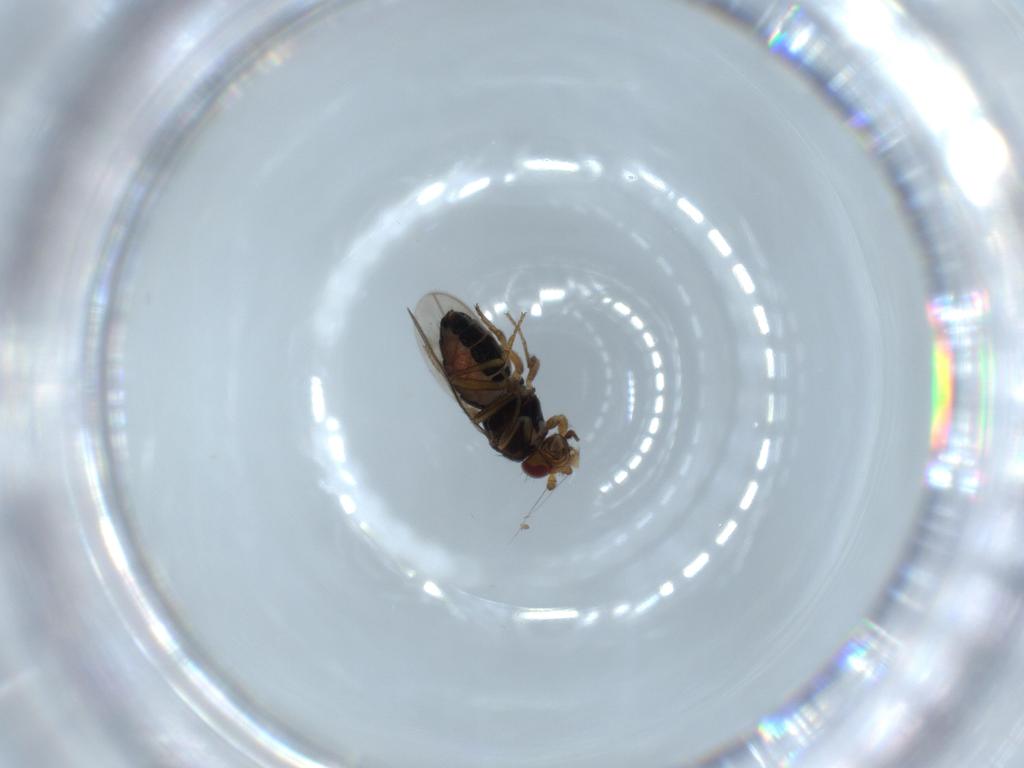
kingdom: Animalia
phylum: Arthropoda
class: Insecta
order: Diptera
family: Sphaeroceridae
